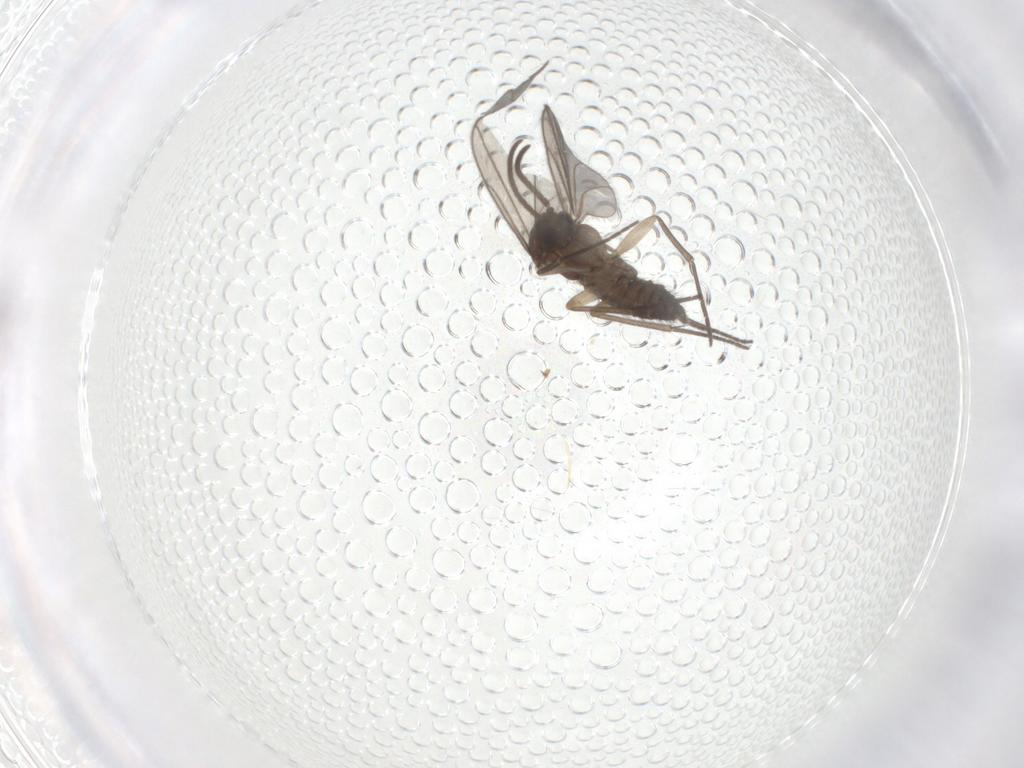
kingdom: Animalia
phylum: Arthropoda
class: Insecta
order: Diptera
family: Sciaridae
